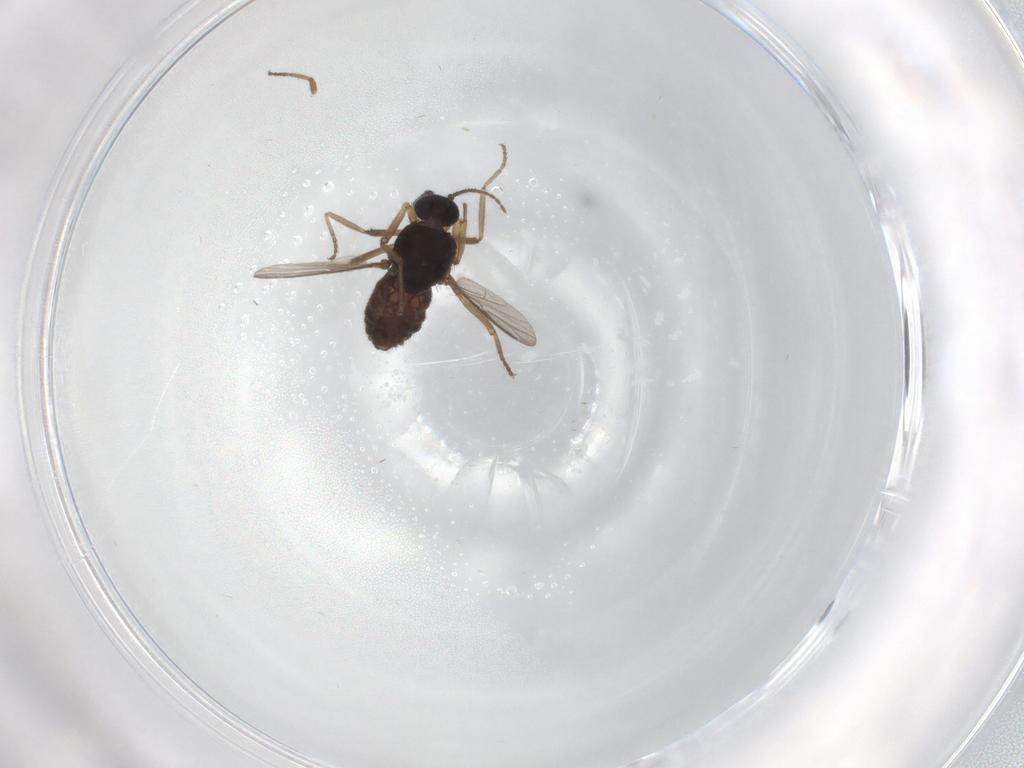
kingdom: Animalia
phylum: Arthropoda
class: Insecta
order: Diptera
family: Ceratopogonidae
